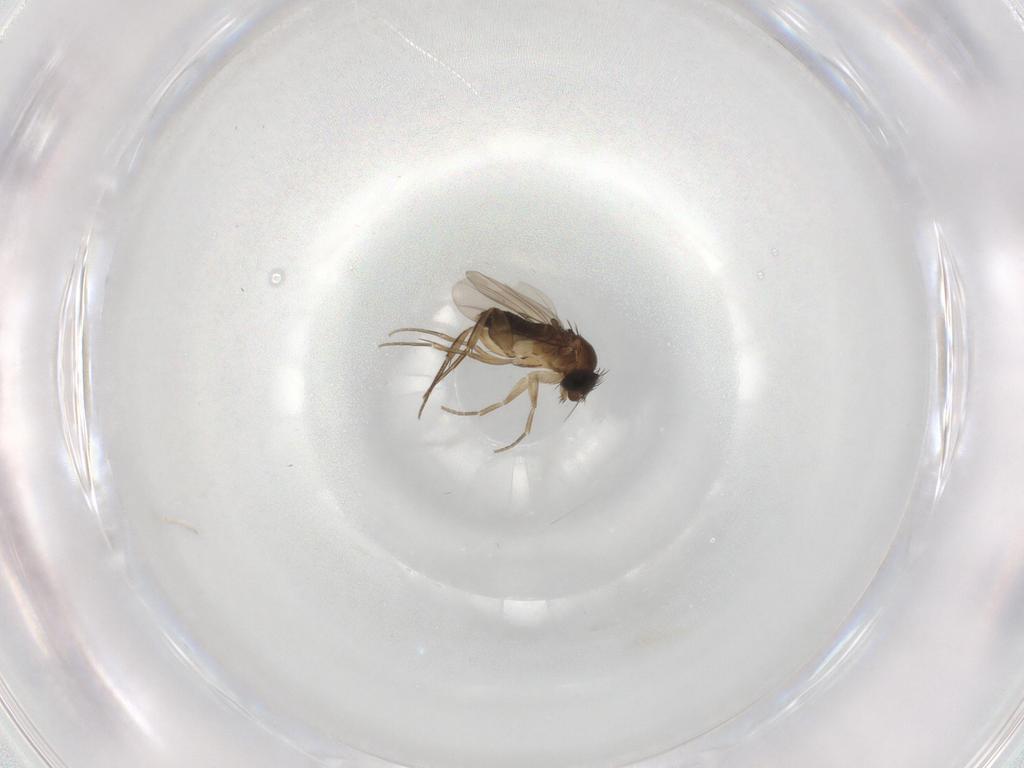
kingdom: Animalia
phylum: Arthropoda
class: Insecta
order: Diptera
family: Phoridae
